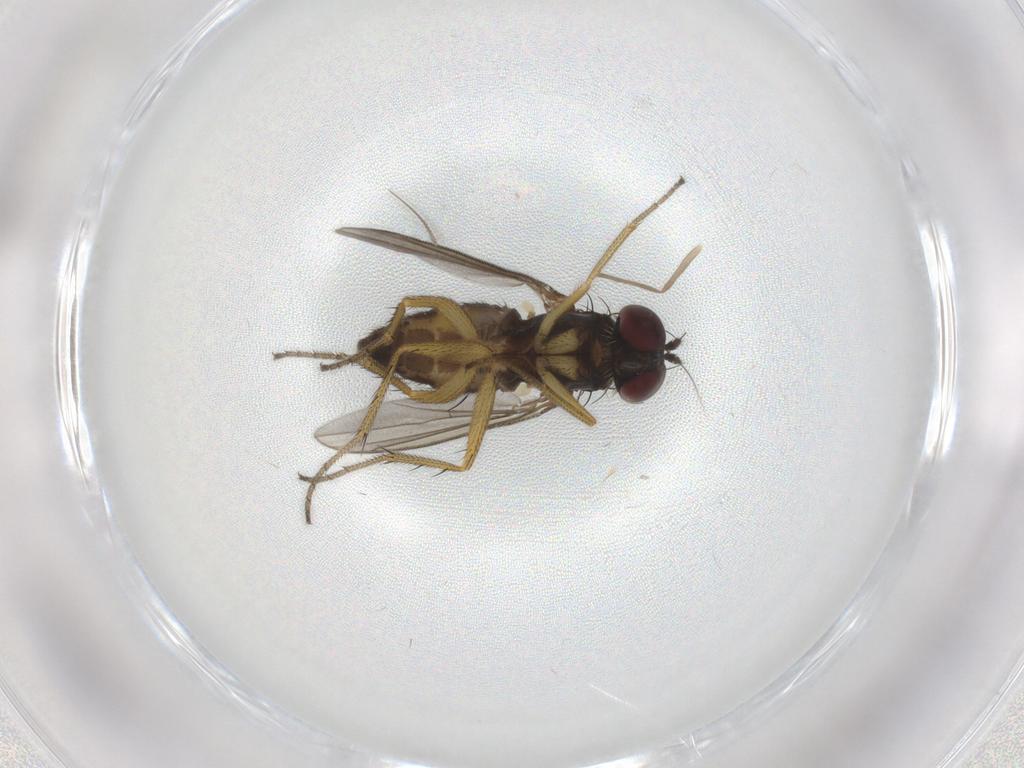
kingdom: Animalia
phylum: Arthropoda
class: Insecta
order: Diptera
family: Dolichopodidae
